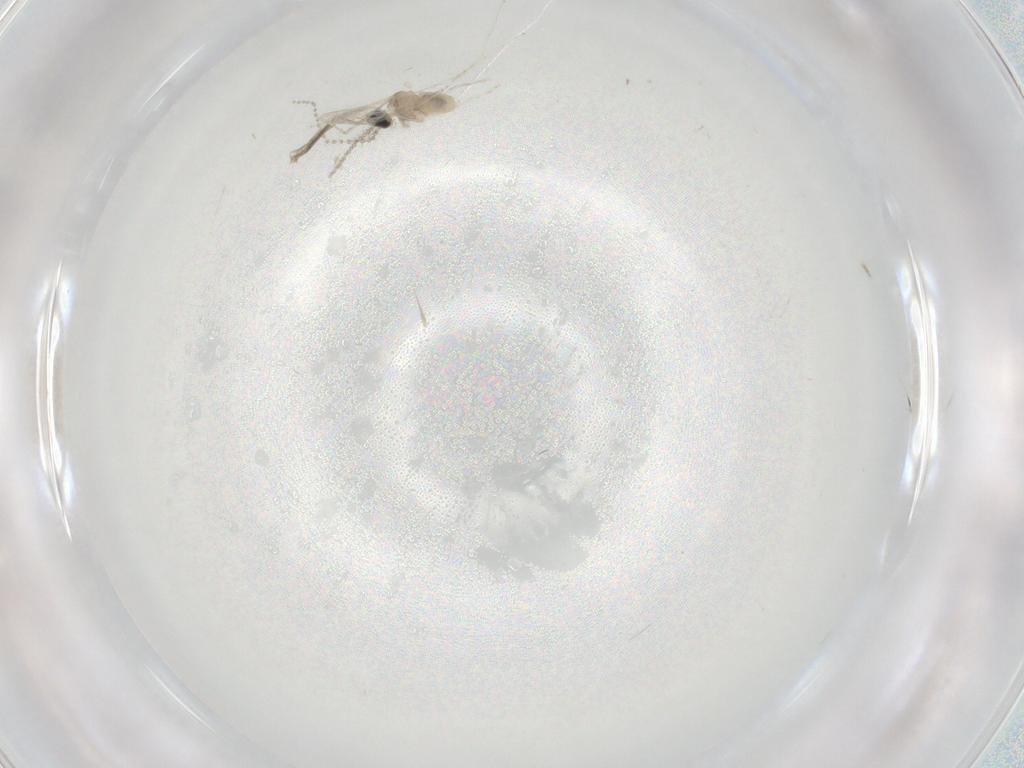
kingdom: Animalia
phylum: Arthropoda
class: Insecta
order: Diptera
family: Cecidomyiidae
